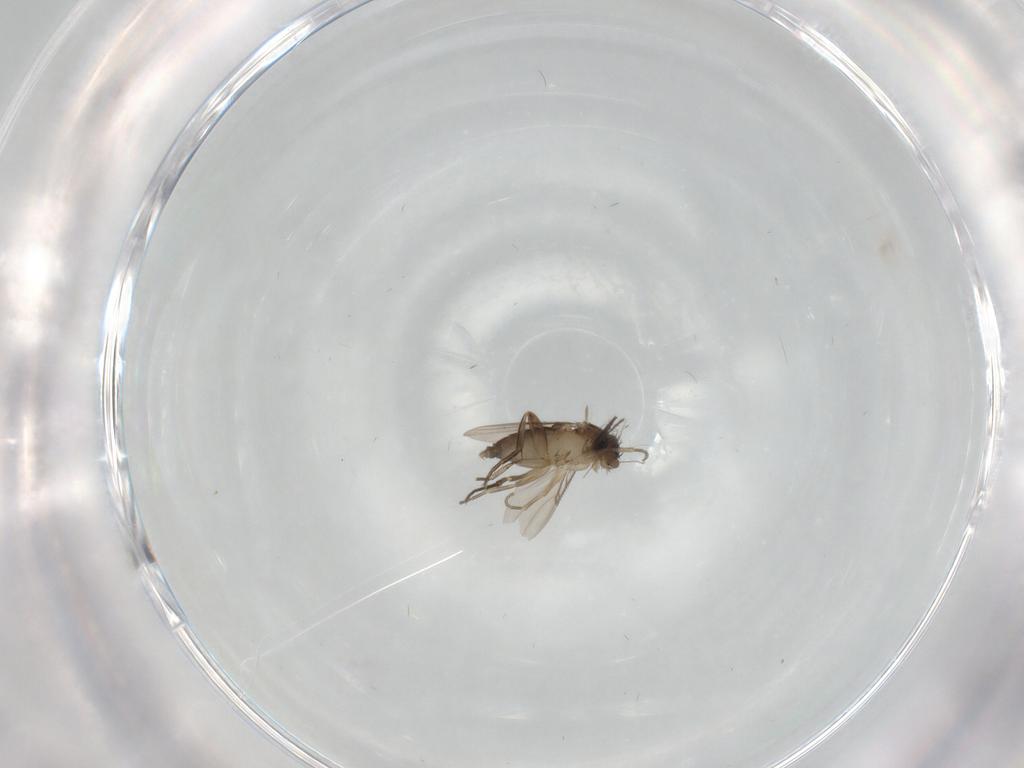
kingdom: Animalia
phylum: Arthropoda
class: Insecta
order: Diptera
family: Phoridae
